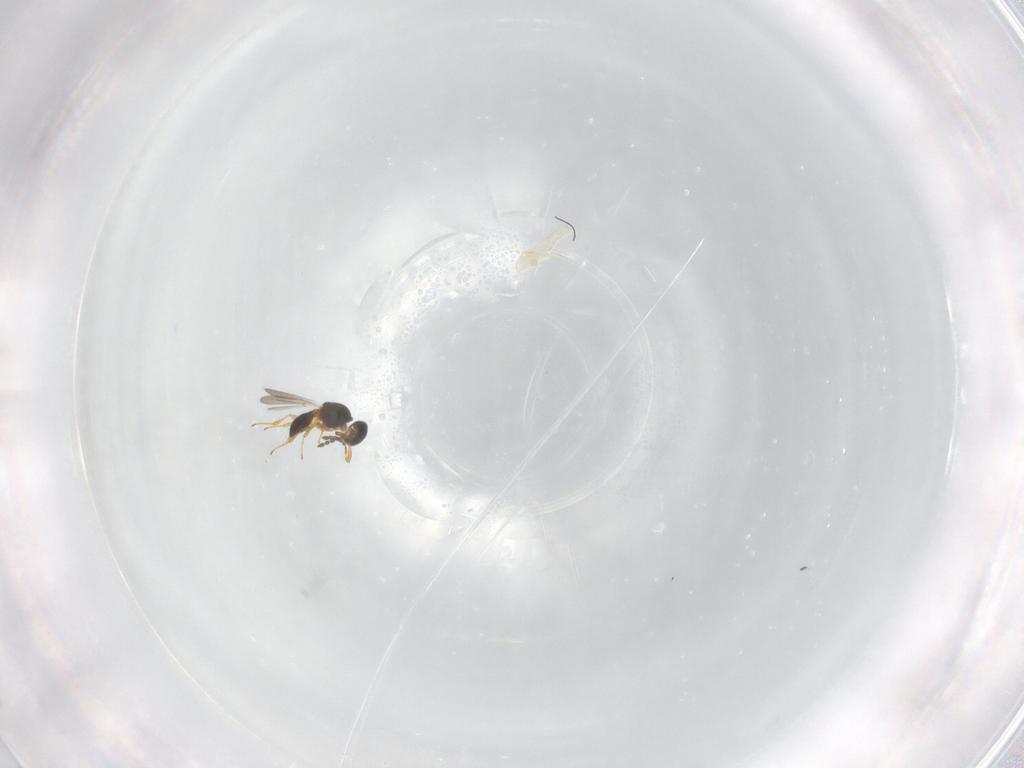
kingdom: Animalia
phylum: Arthropoda
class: Insecta
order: Hymenoptera
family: Platygastridae
